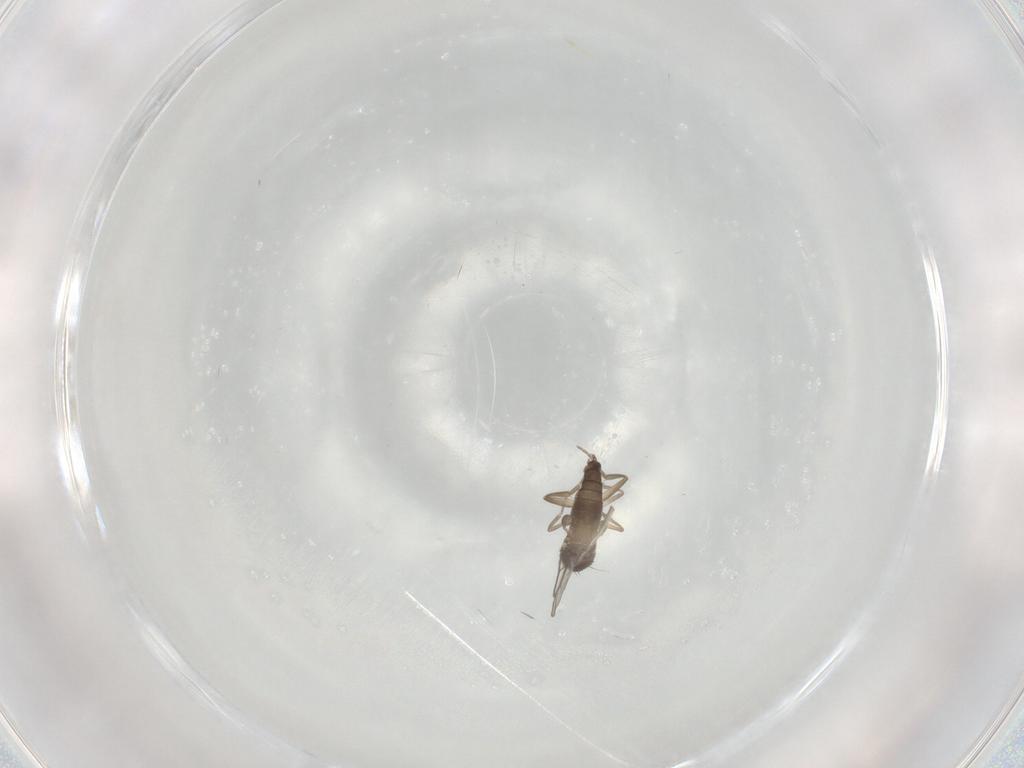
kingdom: Animalia
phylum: Arthropoda
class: Insecta
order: Diptera
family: Phoridae
